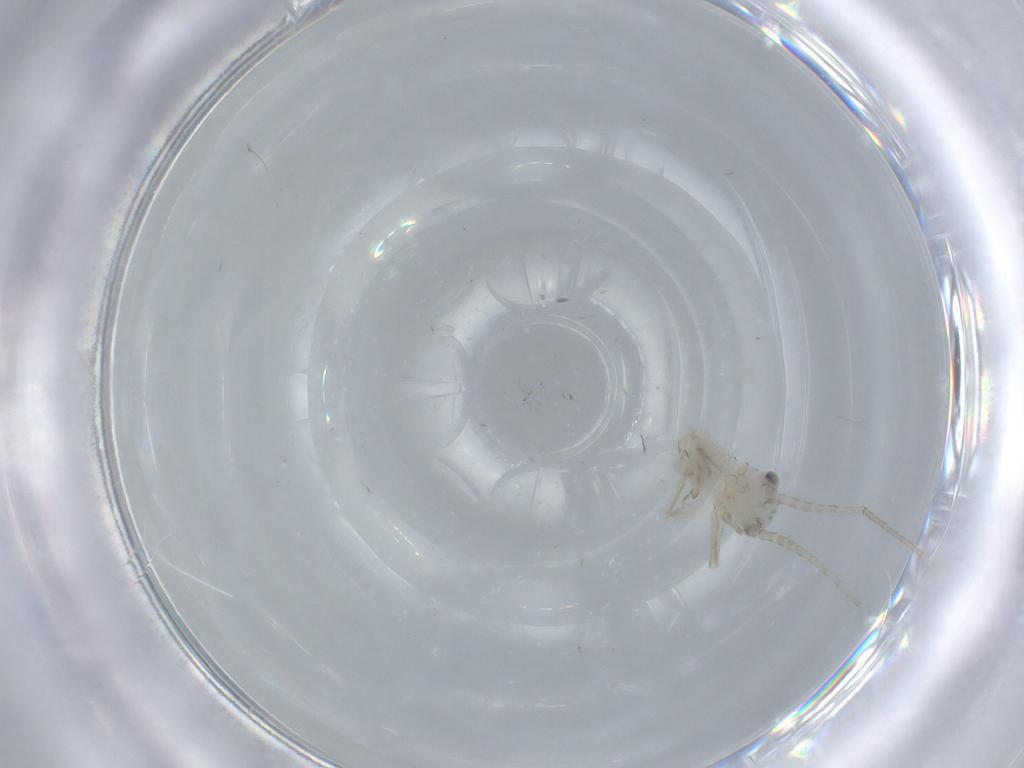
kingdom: Animalia
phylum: Arthropoda
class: Insecta
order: Orthoptera
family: Trigonidiidae
